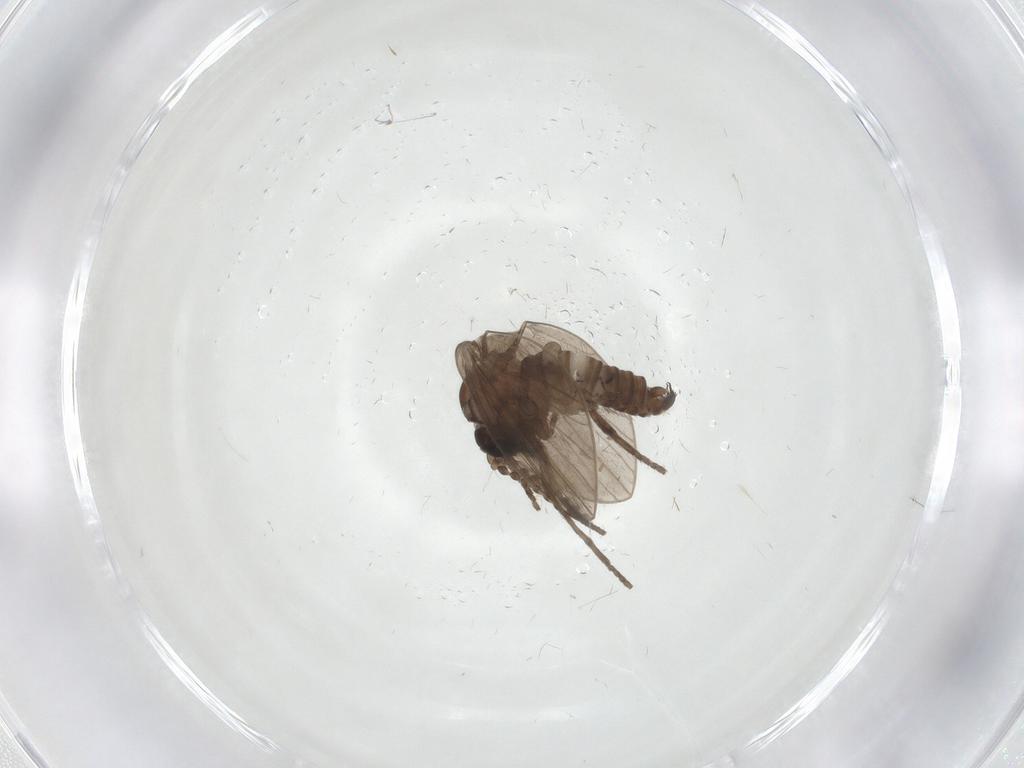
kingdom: Animalia
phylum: Arthropoda
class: Insecta
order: Diptera
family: Psychodidae
